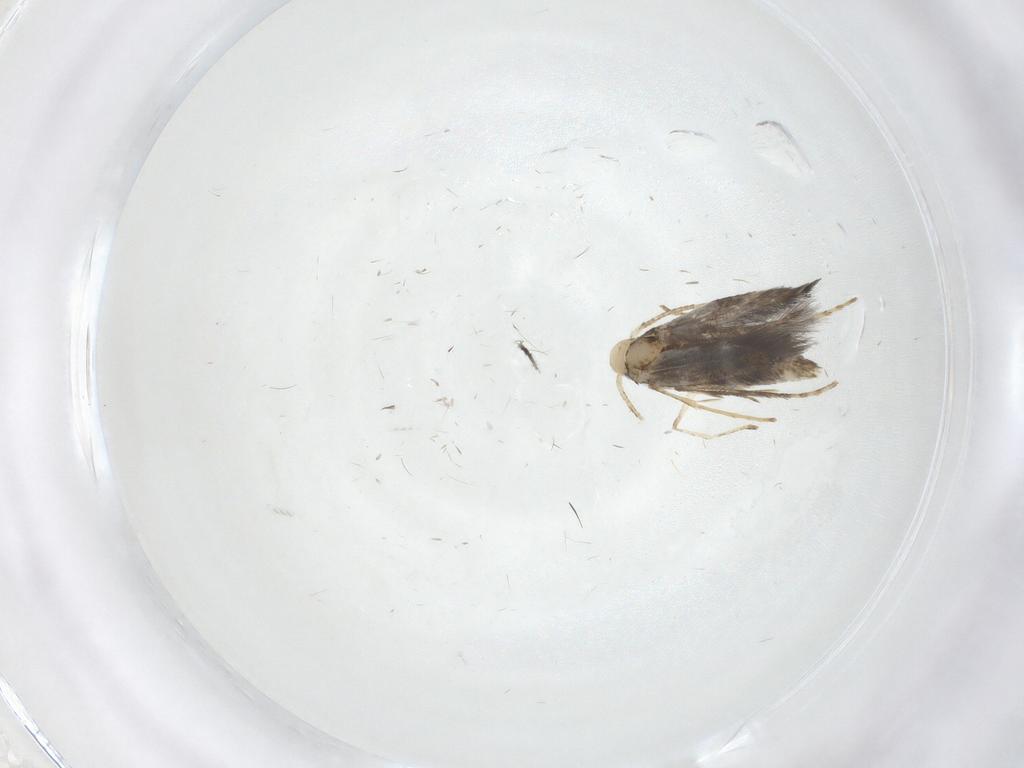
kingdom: Animalia
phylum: Arthropoda
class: Insecta
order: Lepidoptera
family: Nepticulidae
